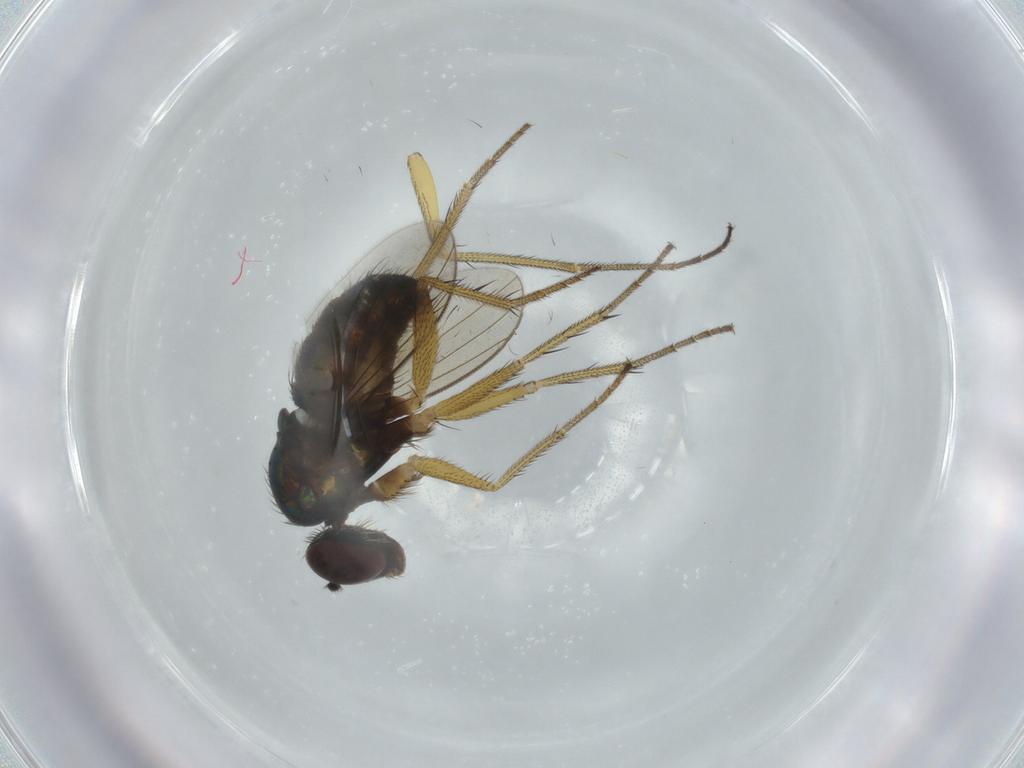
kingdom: Animalia
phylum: Arthropoda
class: Insecta
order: Diptera
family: Dolichopodidae
